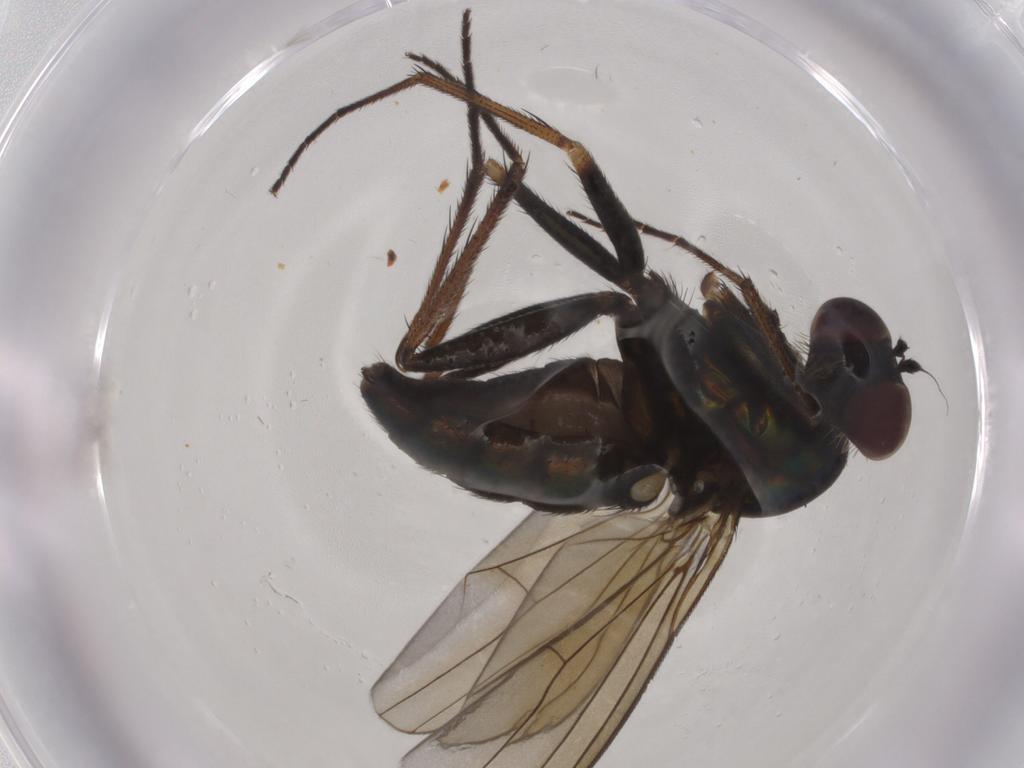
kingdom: Animalia
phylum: Arthropoda
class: Insecta
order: Diptera
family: Dolichopodidae
